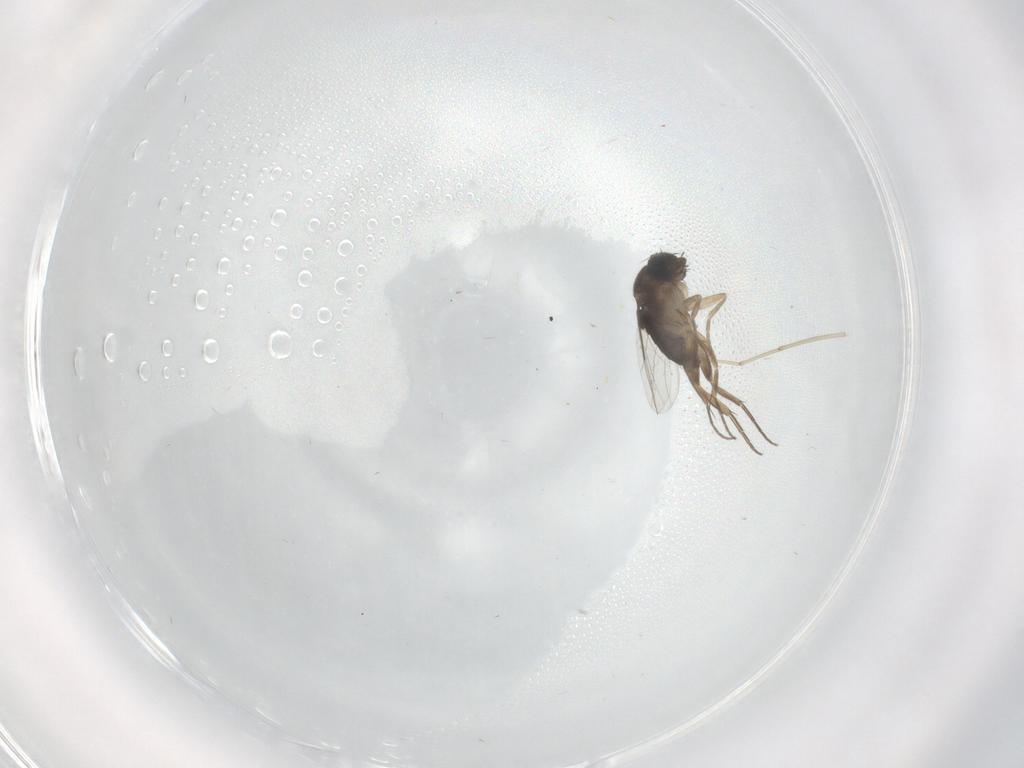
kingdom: Animalia
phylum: Arthropoda
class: Insecta
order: Diptera
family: Phoridae
